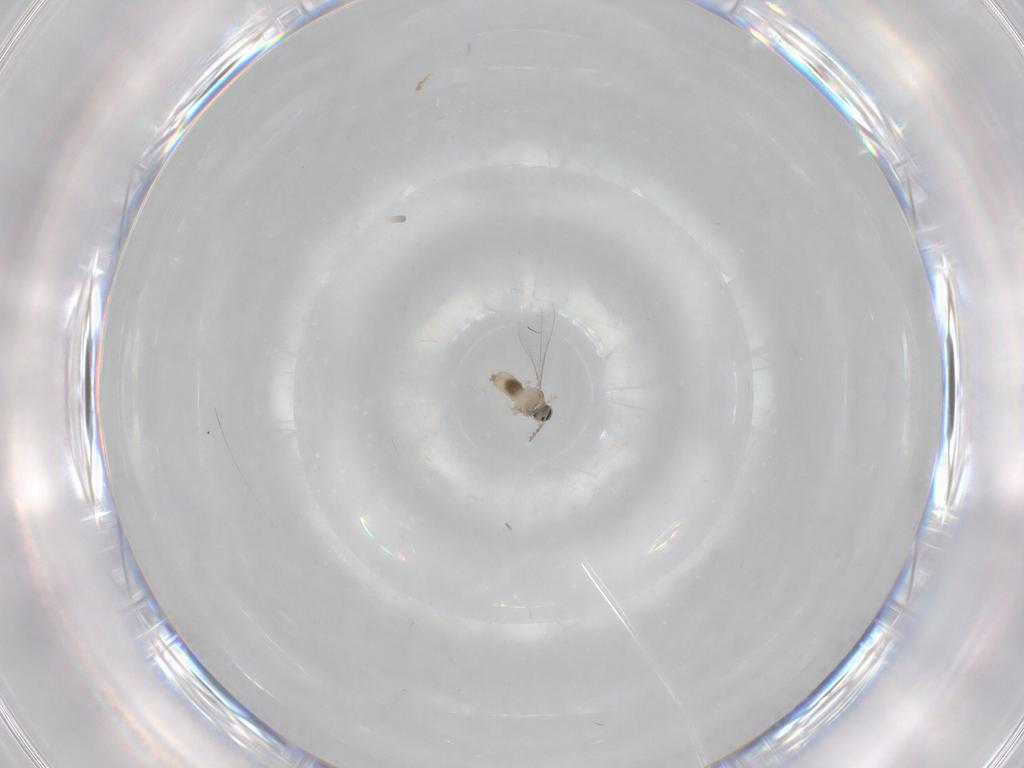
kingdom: Animalia
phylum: Arthropoda
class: Insecta
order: Diptera
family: Cecidomyiidae
